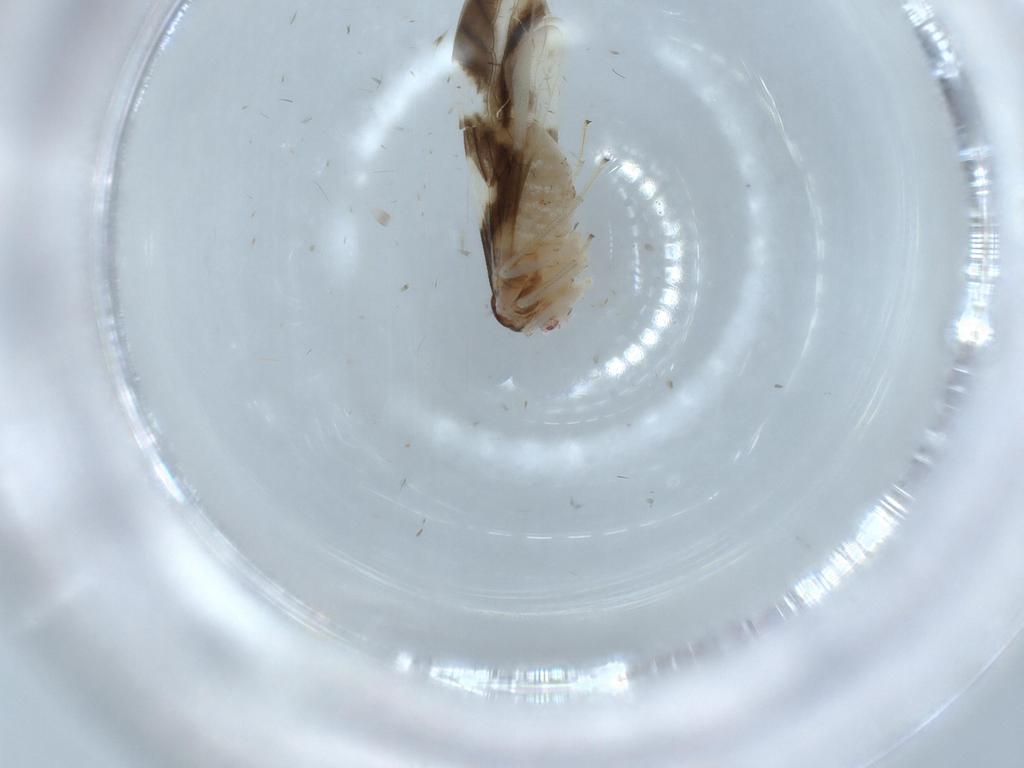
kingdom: Animalia
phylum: Arthropoda
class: Insecta
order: Psocodea
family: Caeciliusidae
